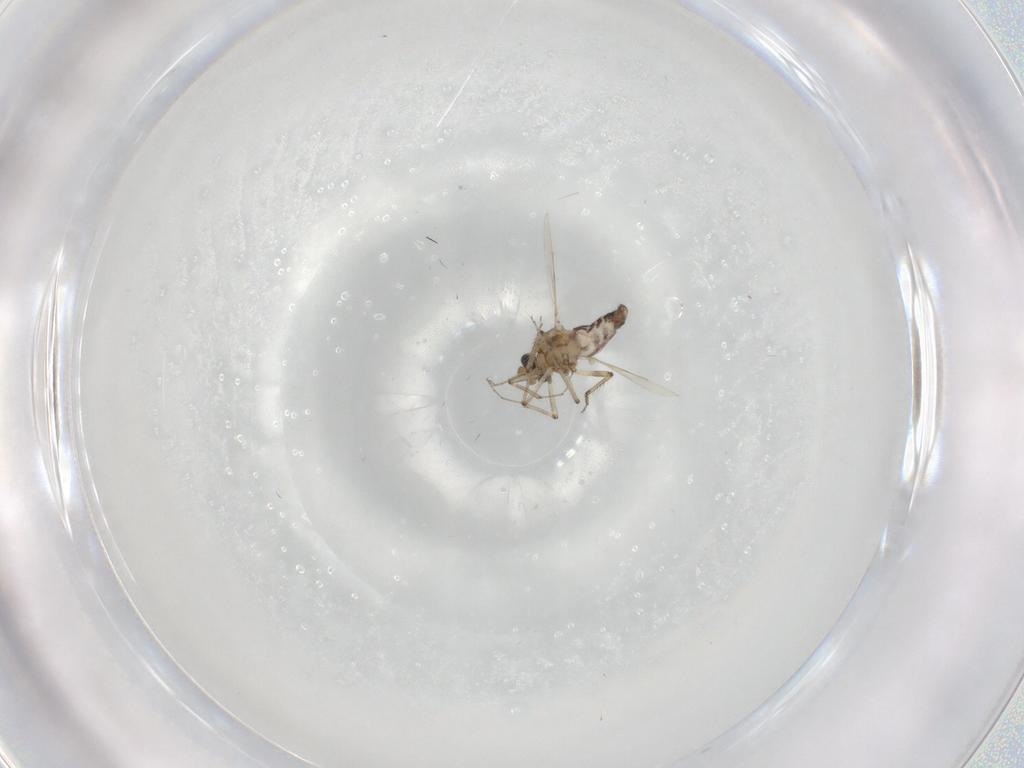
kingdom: Animalia
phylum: Arthropoda
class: Insecta
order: Diptera
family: Ceratopogonidae
